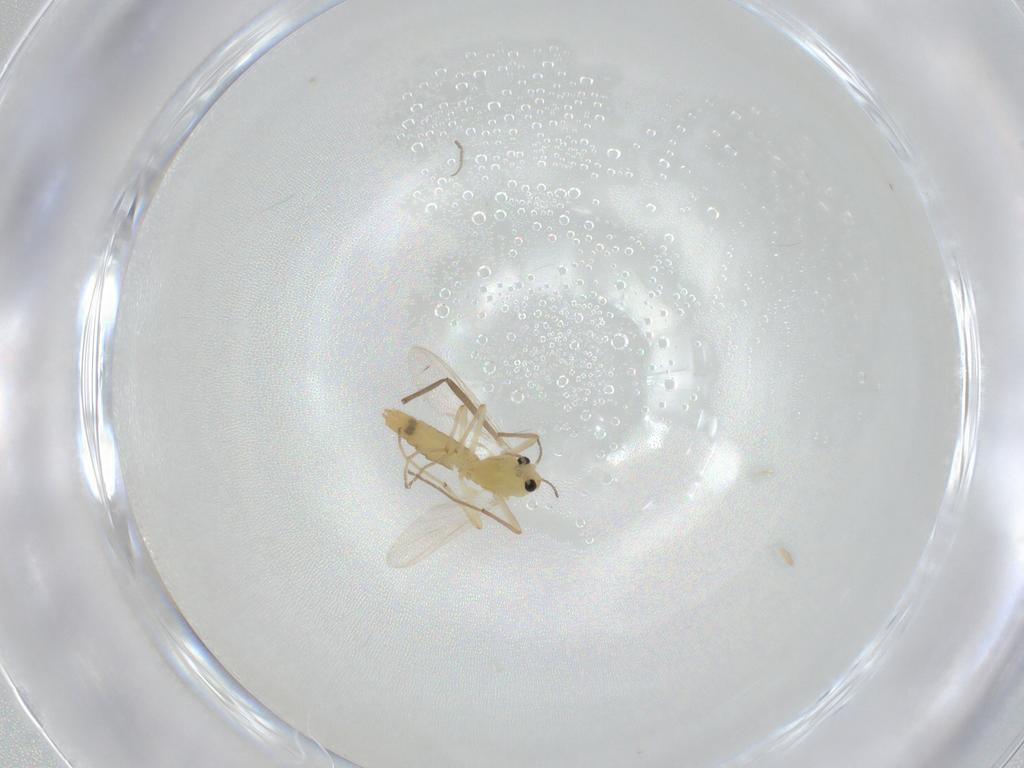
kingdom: Animalia
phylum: Arthropoda
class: Insecta
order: Diptera
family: Chironomidae
